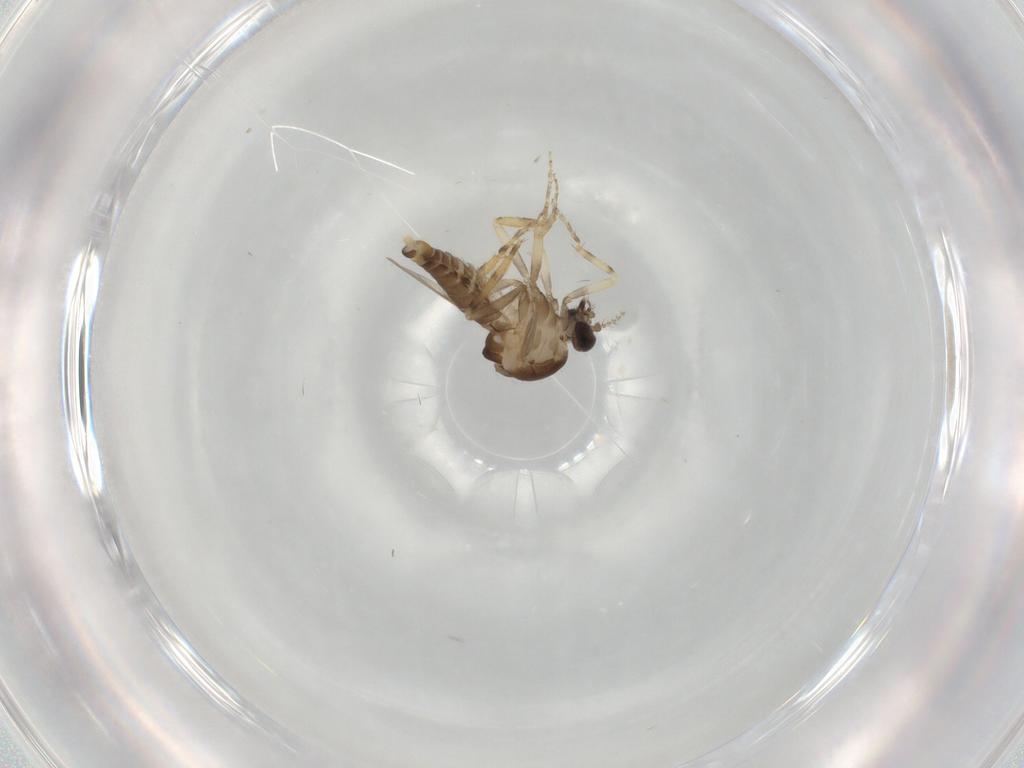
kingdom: Animalia
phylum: Arthropoda
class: Insecta
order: Diptera
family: Ceratopogonidae
